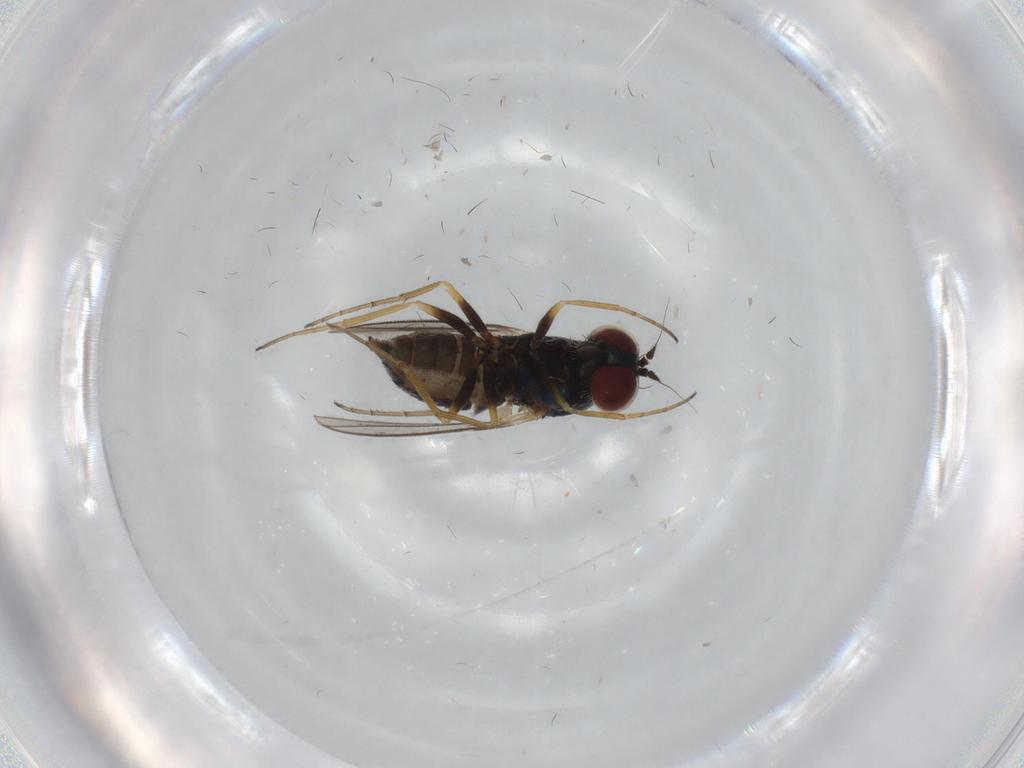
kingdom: Animalia
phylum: Arthropoda
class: Insecta
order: Diptera
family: Dolichopodidae
